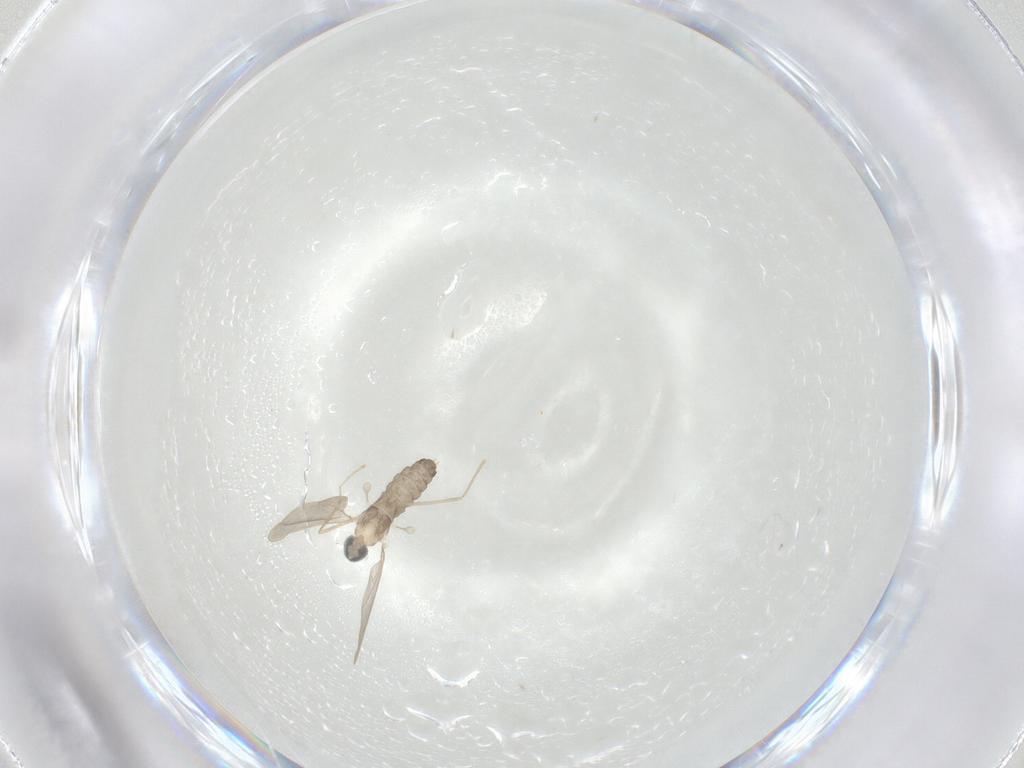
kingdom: Animalia
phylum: Arthropoda
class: Insecta
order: Diptera
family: Cecidomyiidae
